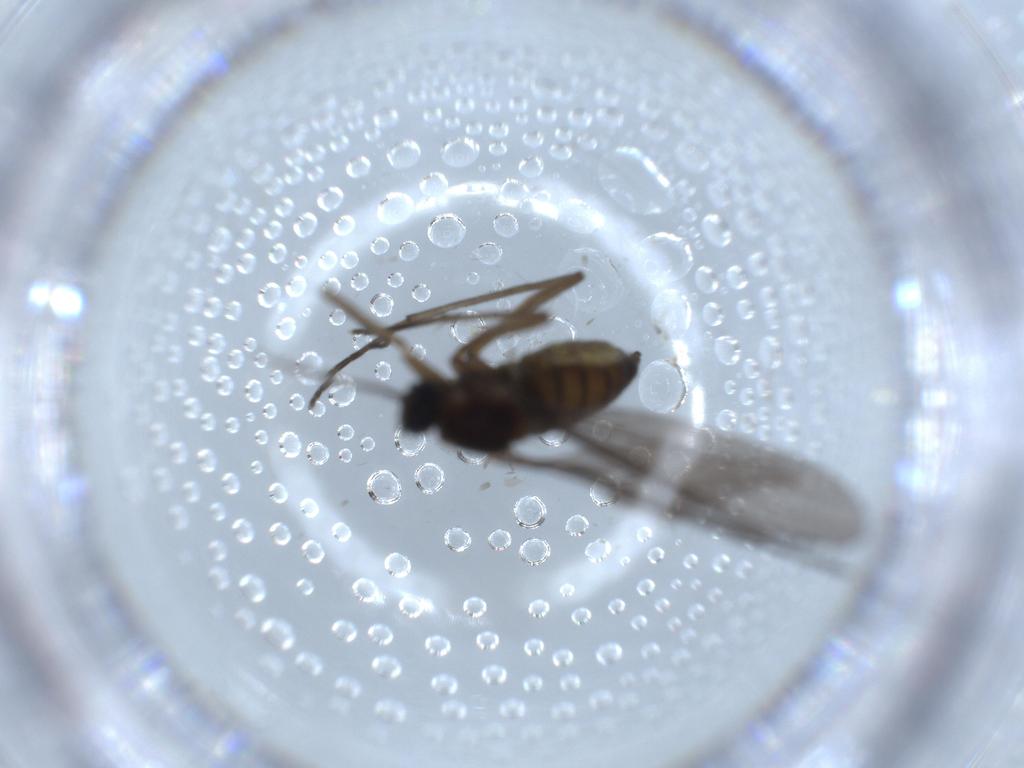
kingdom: Animalia
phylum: Arthropoda
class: Insecta
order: Diptera
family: Sciaridae
